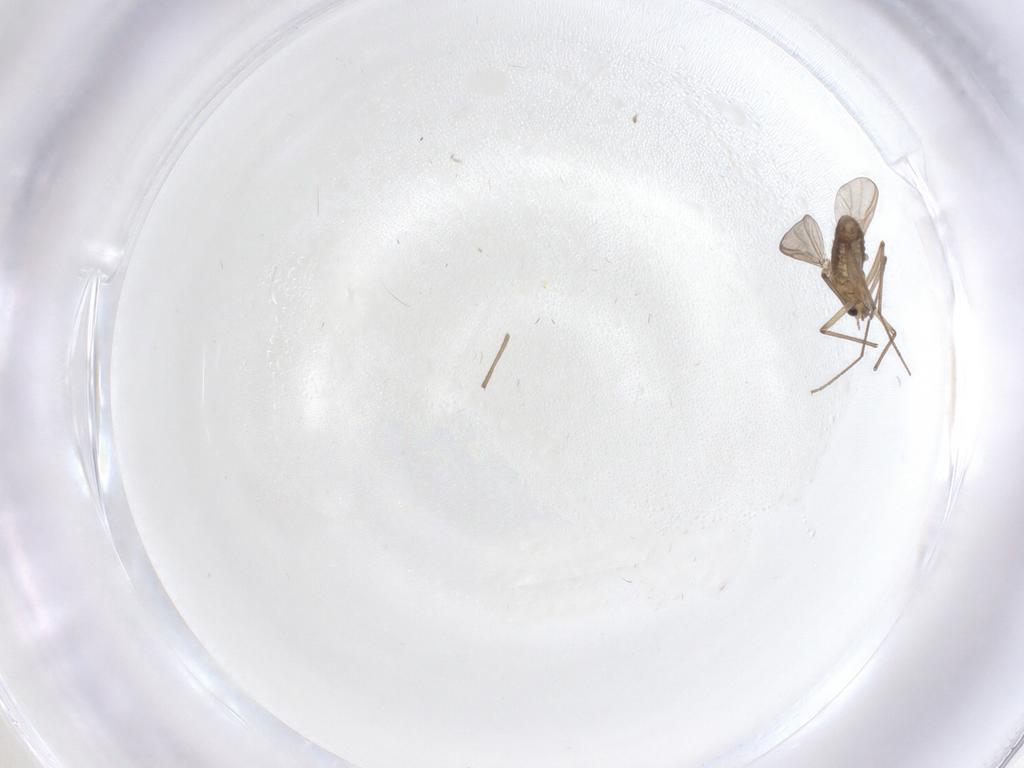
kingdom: Animalia
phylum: Arthropoda
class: Insecta
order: Diptera
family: Chironomidae
